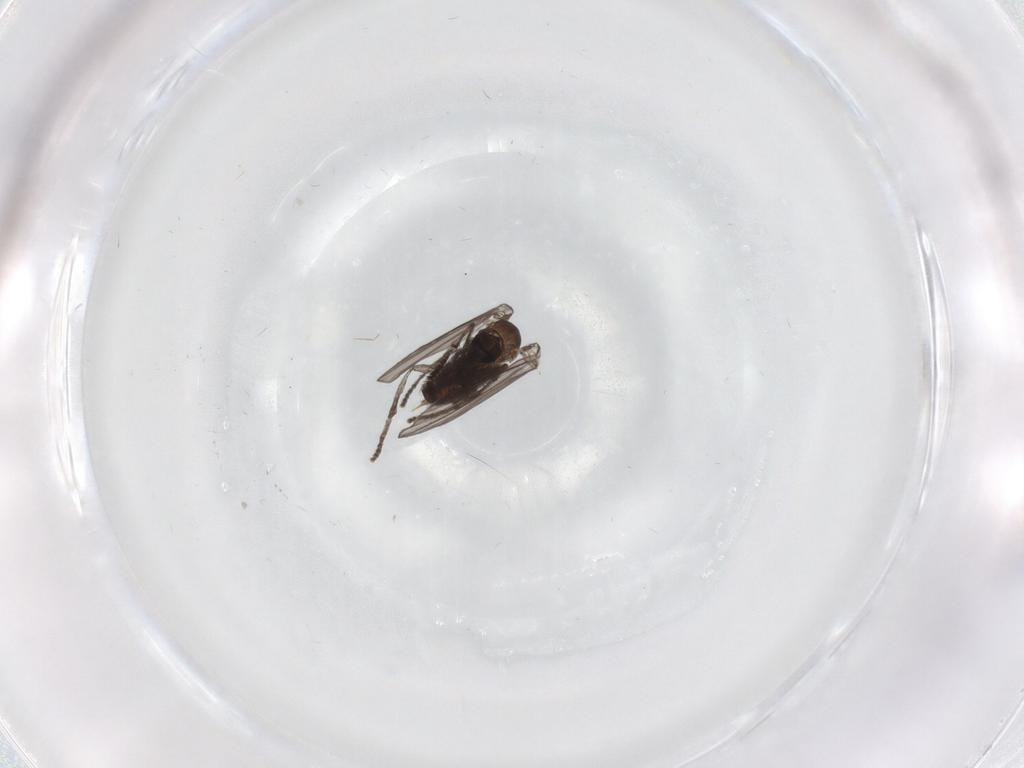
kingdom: Animalia
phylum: Arthropoda
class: Insecta
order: Diptera
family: Psychodidae
